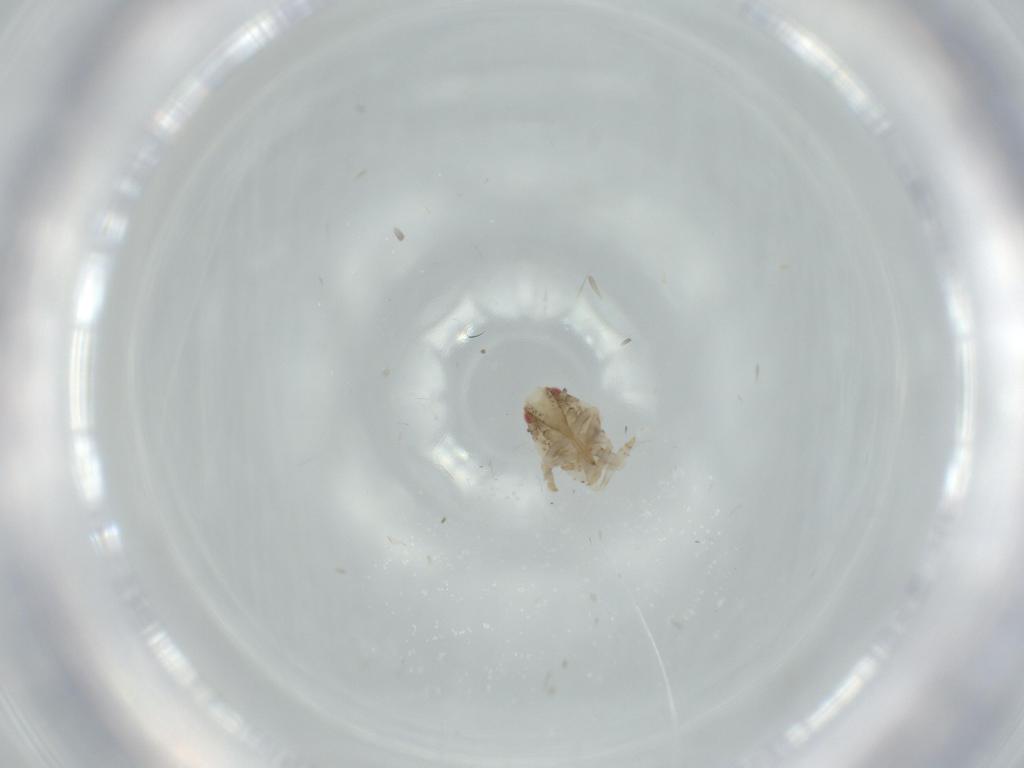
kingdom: Animalia
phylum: Arthropoda
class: Insecta
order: Hemiptera
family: Acanaloniidae
